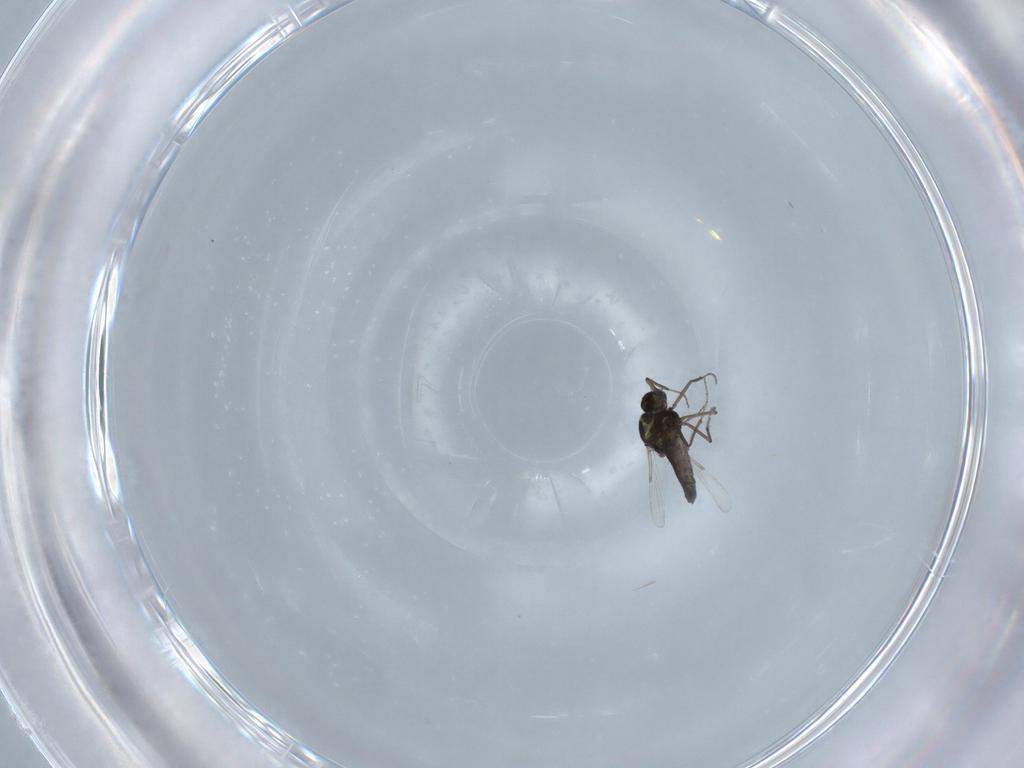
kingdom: Animalia
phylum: Arthropoda
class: Insecta
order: Diptera
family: Ceratopogonidae
